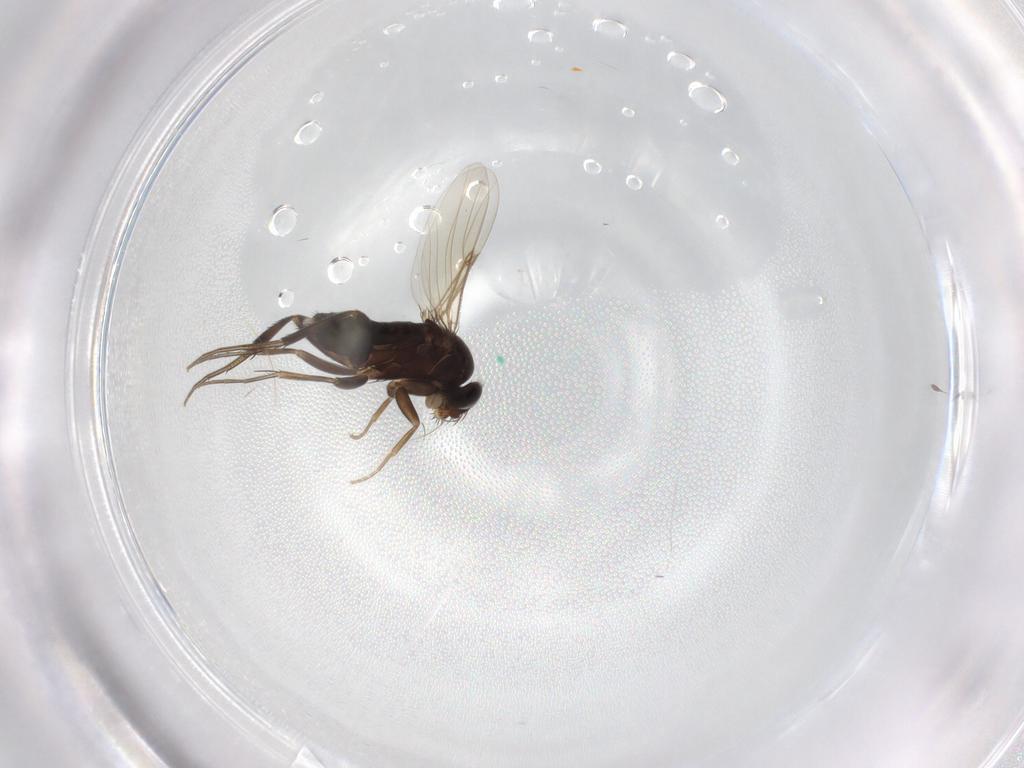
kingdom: Animalia
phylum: Arthropoda
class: Insecta
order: Diptera
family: Phoridae
